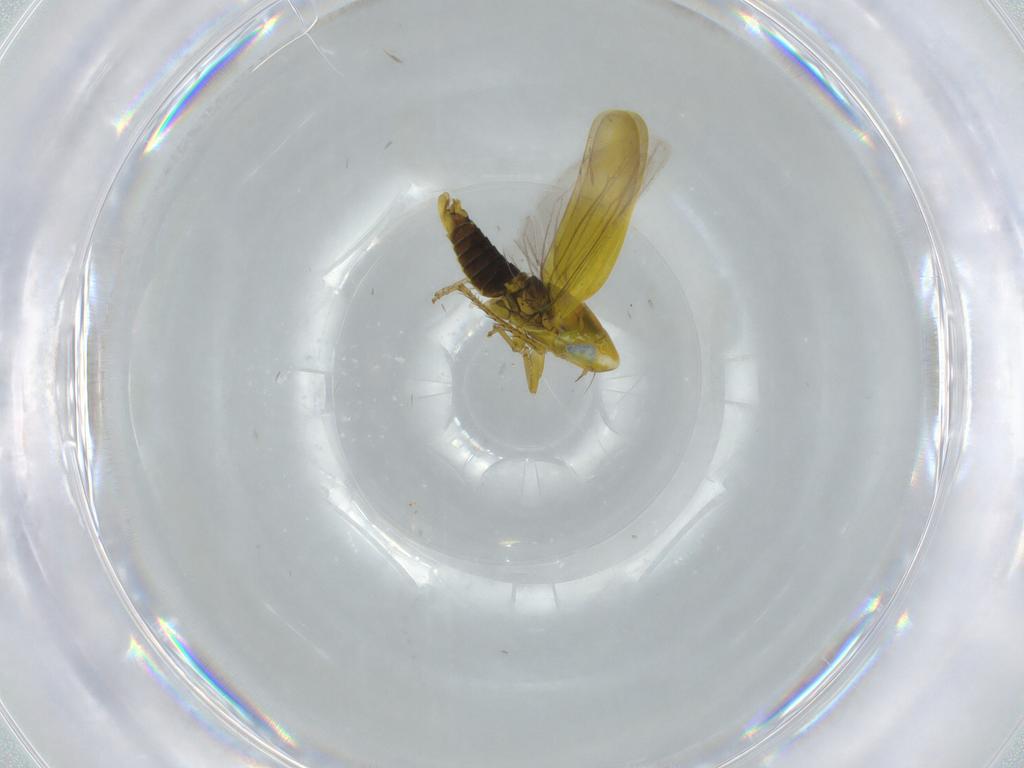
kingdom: Animalia
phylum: Arthropoda
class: Insecta
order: Hemiptera
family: Cicadellidae
